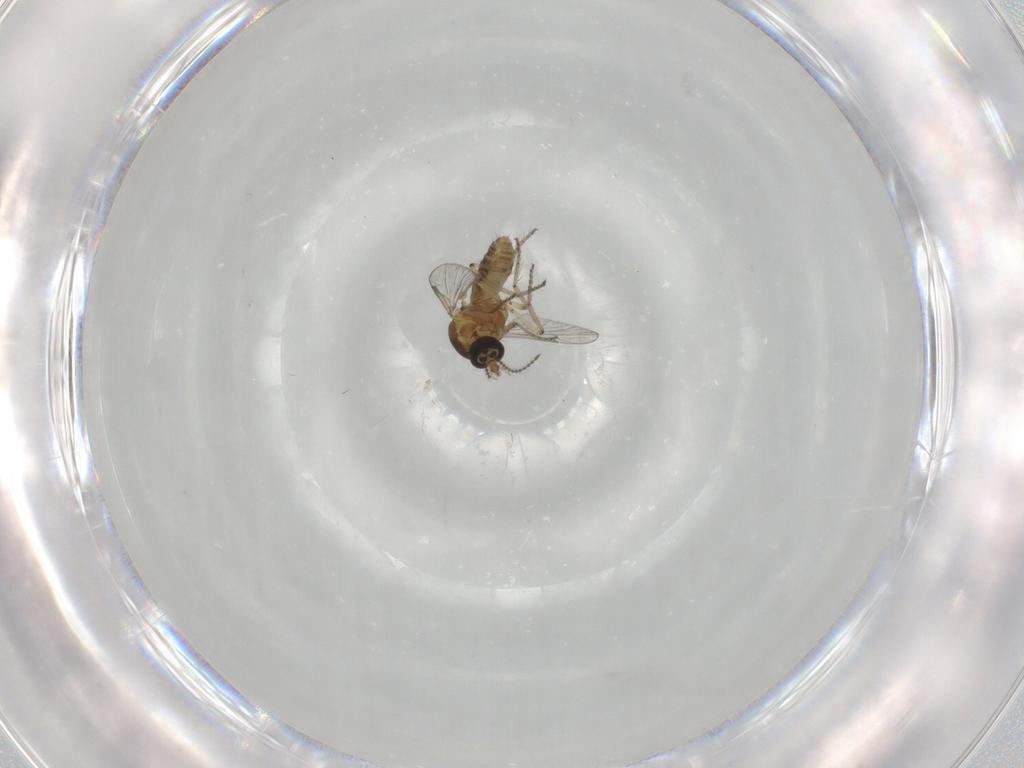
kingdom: Animalia
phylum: Arthropoda
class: Insecta
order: Diptera
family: Ceratopogonidae
